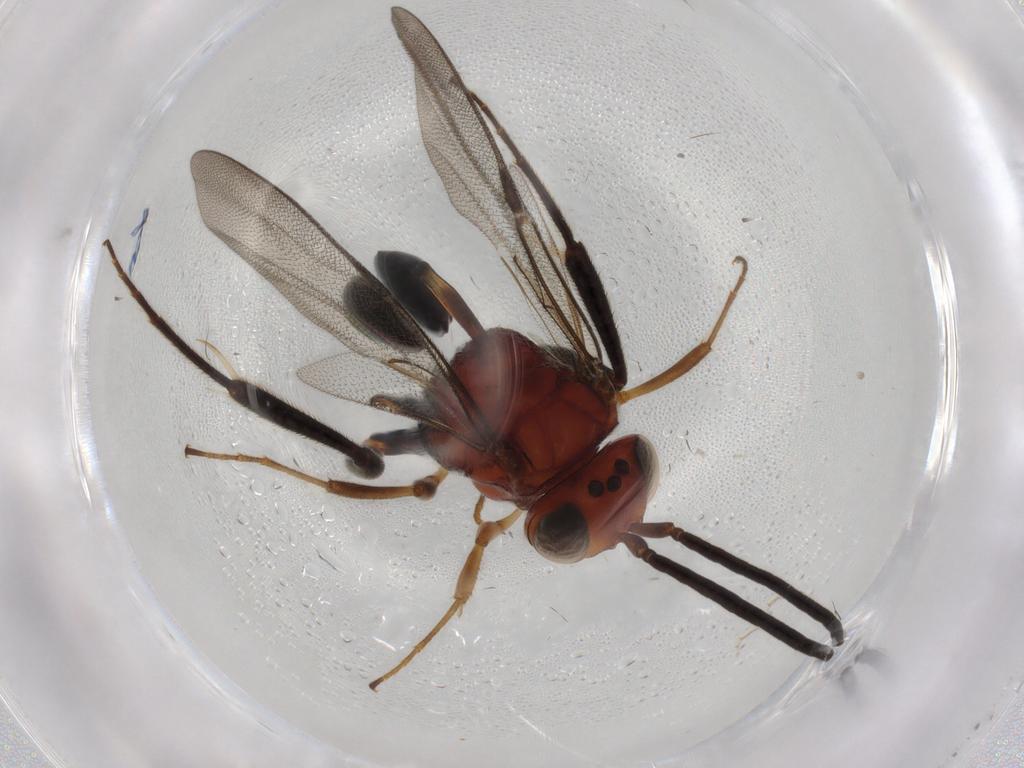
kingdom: Animalia
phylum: Arthropoda
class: Insecta
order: Hymenoptera
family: Evaniidae
